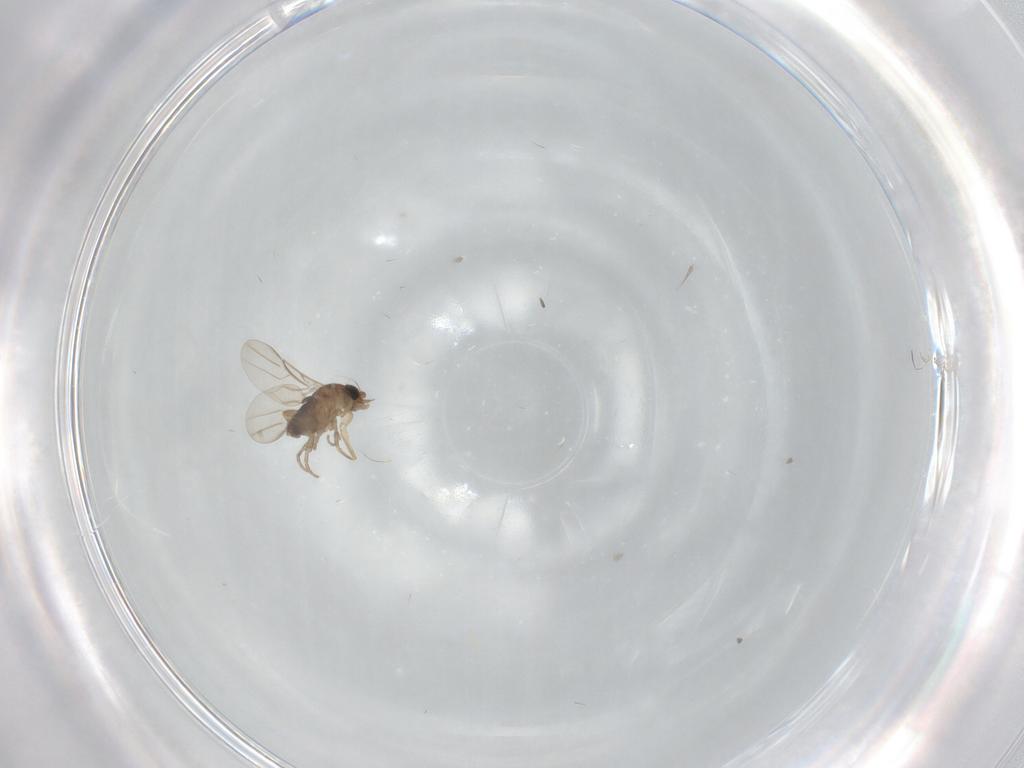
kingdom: Animalia
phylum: Arthropoda
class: Insecta
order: Diptera
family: Phoridae
